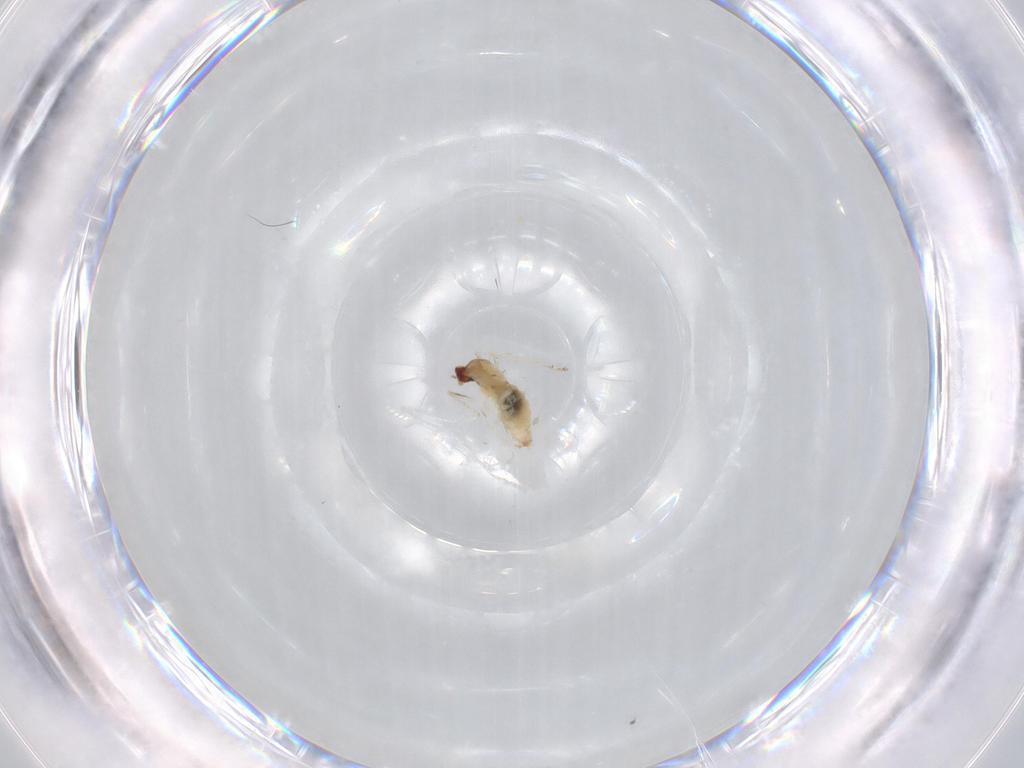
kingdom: Animalia
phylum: Arthropoda
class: Insecta
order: Diptera
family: Cecidomyiidae
